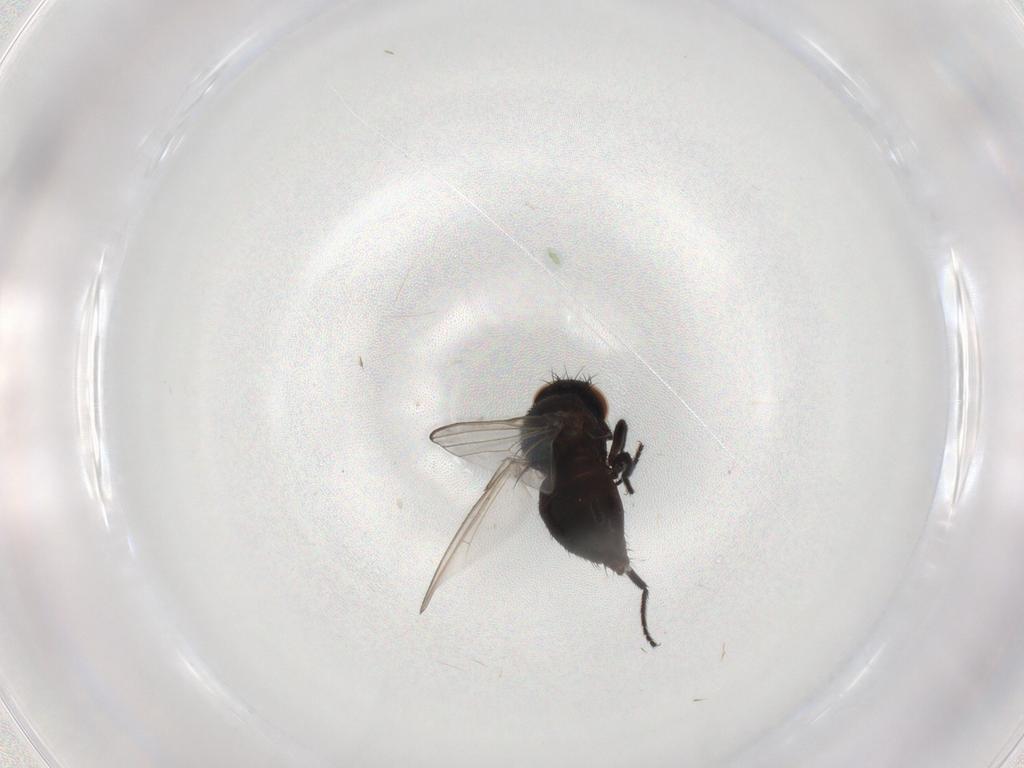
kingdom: Animalia
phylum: Arthropoda
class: Insecta
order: Diptera
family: Milichiidae
